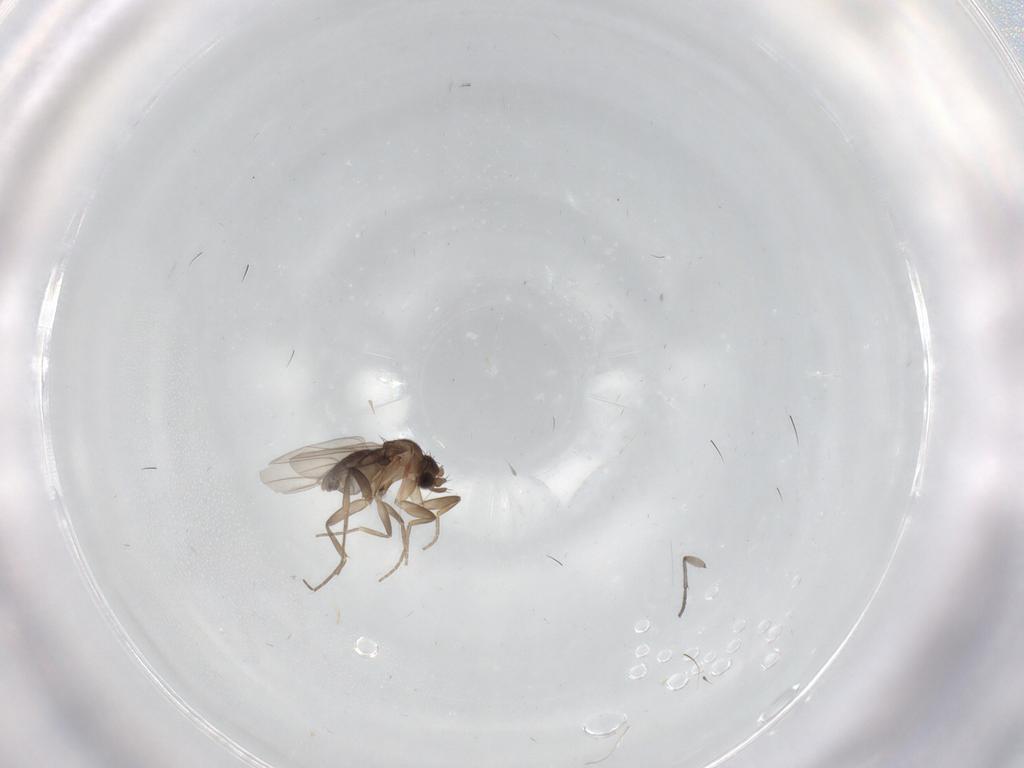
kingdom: Animalia
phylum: Arthropoda
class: Insecta
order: Diptera
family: Sciaridae
